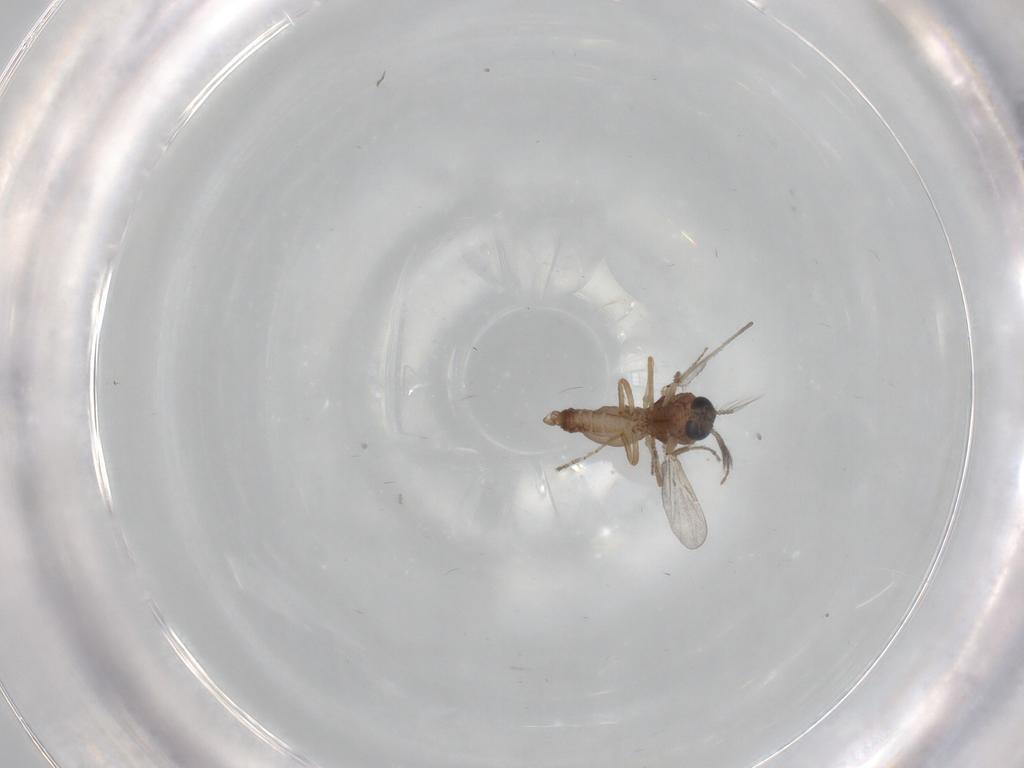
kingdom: Animalia
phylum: Arthropoda
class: Insecta
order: Diptera
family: Ceratopogonidae
